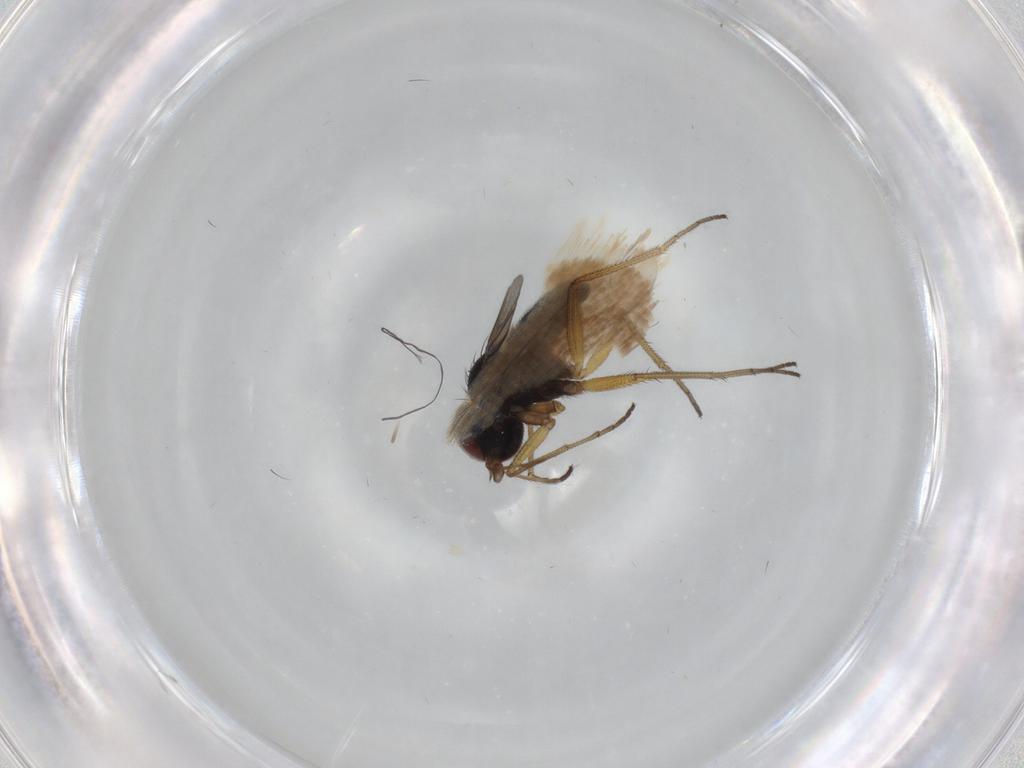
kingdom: Animalia
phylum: Arthropoda
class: Insecta
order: Diptera
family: Dolichopodidae
